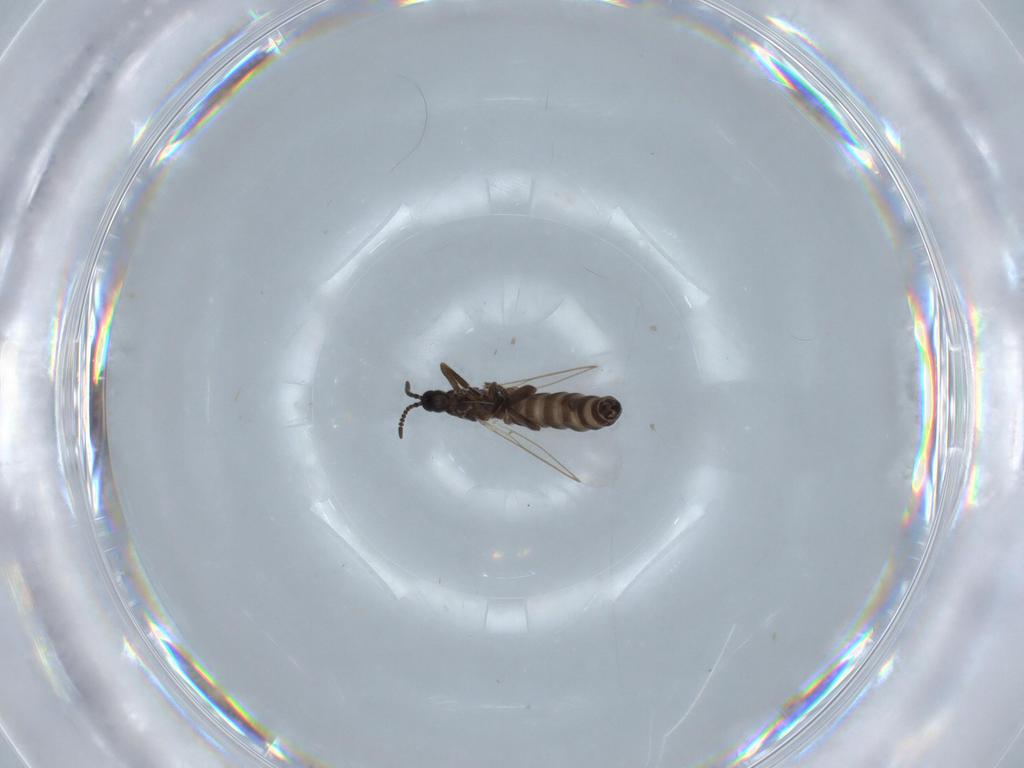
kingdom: Animalia
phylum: Arthropoda
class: Insecta
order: Diptera
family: Scatopsidae
